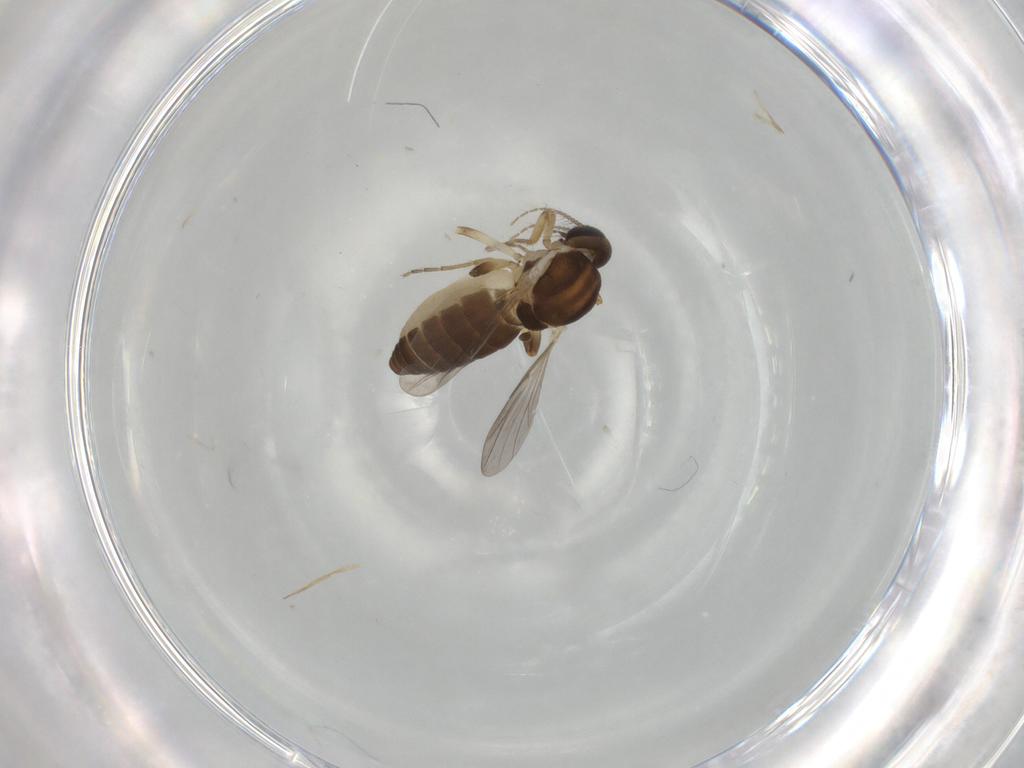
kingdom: Animalia
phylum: Arthropoda
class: Insecta
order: Diptera
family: Ceratopogonidae
